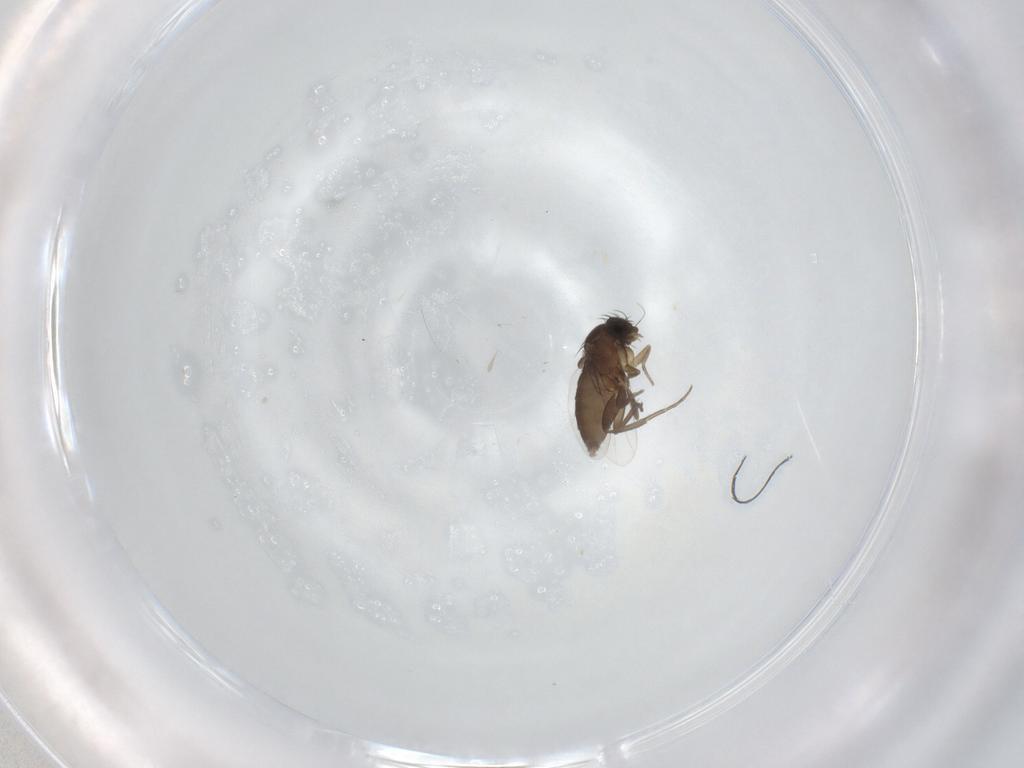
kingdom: Animalia
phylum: Arthropoda
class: Insecta
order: Diptera
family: Phoridae
